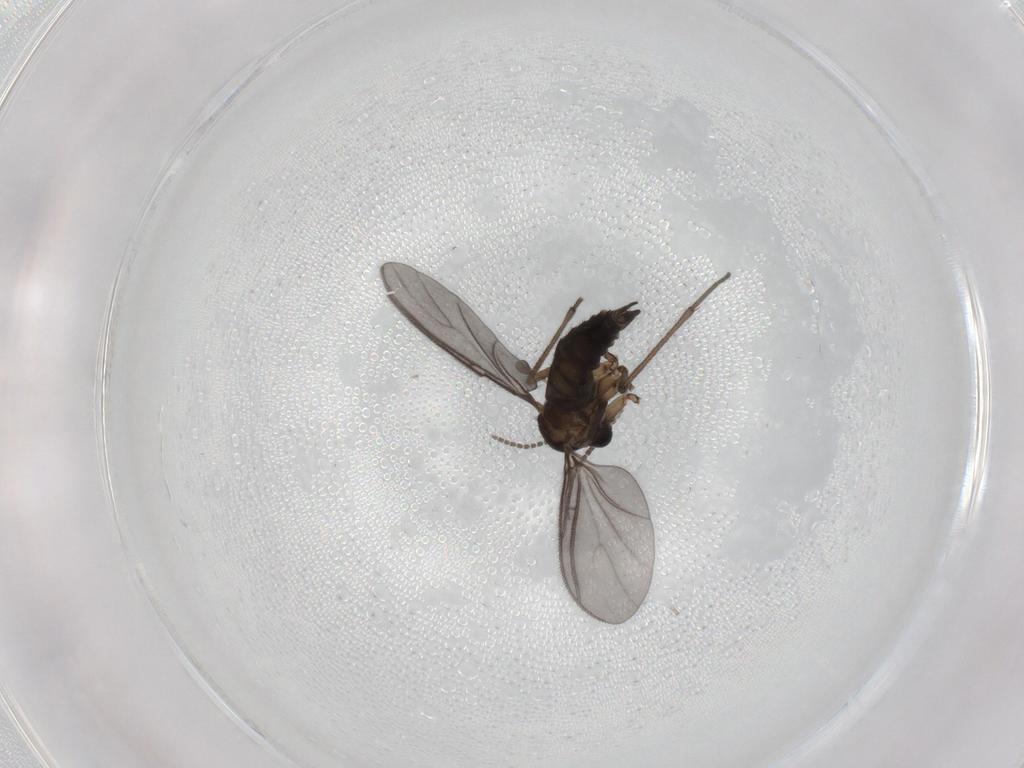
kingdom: Animalia
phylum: Arthropoda
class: Insecta
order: Diptera
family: Sciaridae
